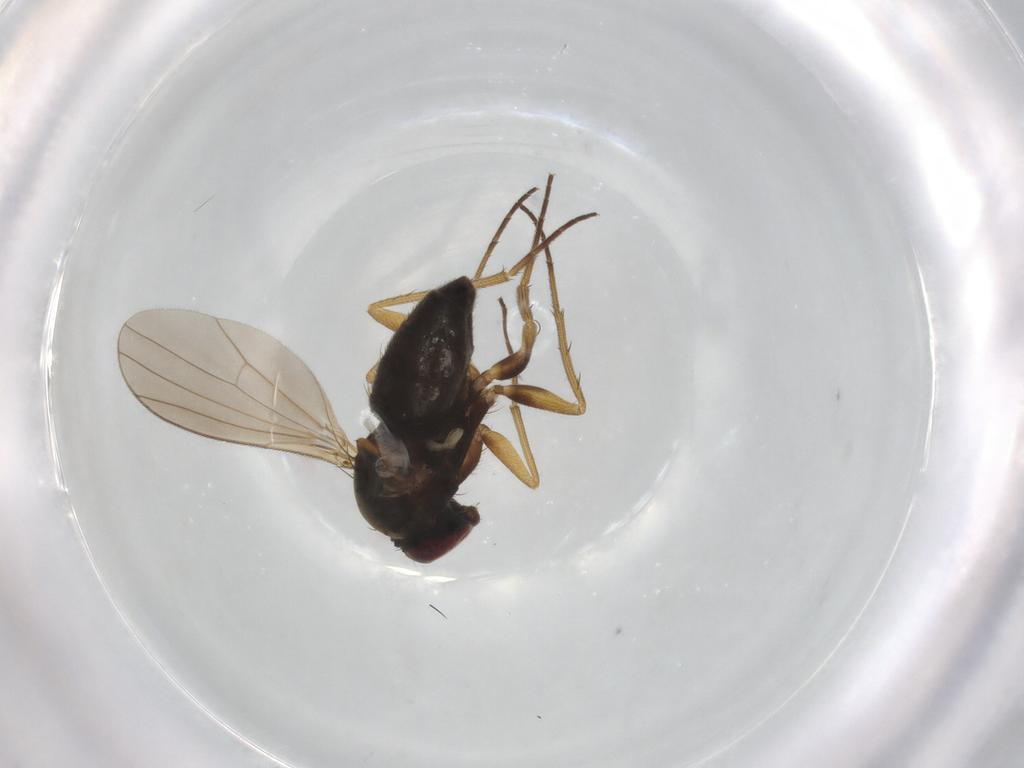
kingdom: Animalia
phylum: Arthropoda
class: Insecta
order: Diptera
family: Chironomidae
